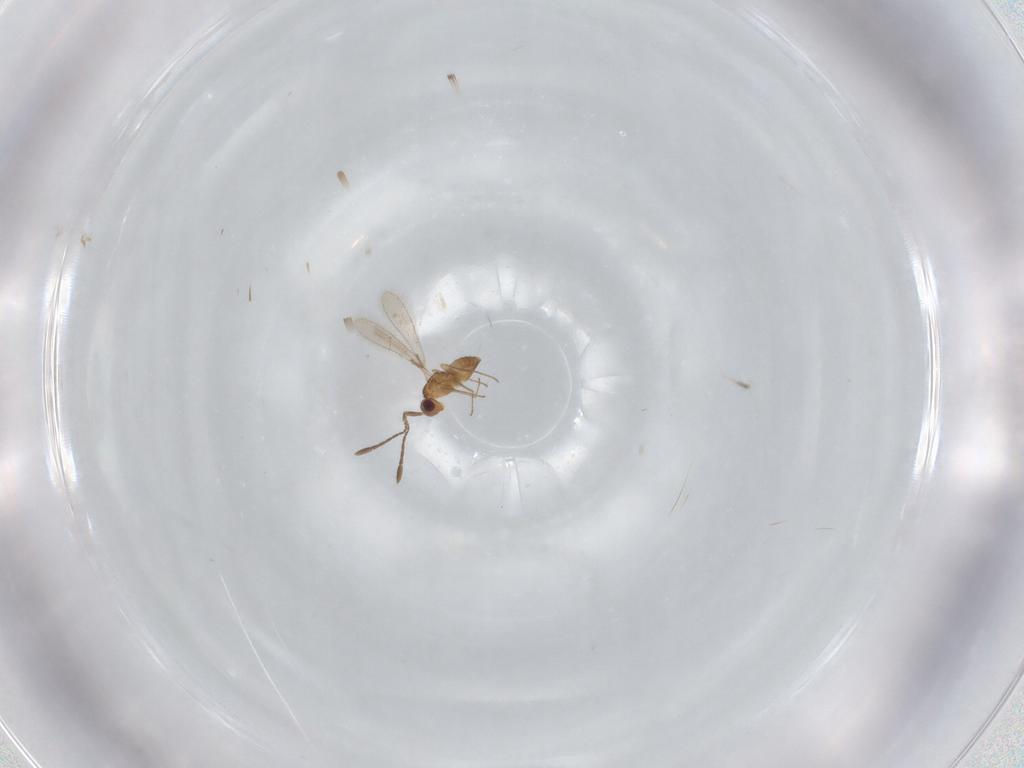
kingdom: Animalia
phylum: Arthropoda
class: Insecta
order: Hymenoptera
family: Mymaridae
